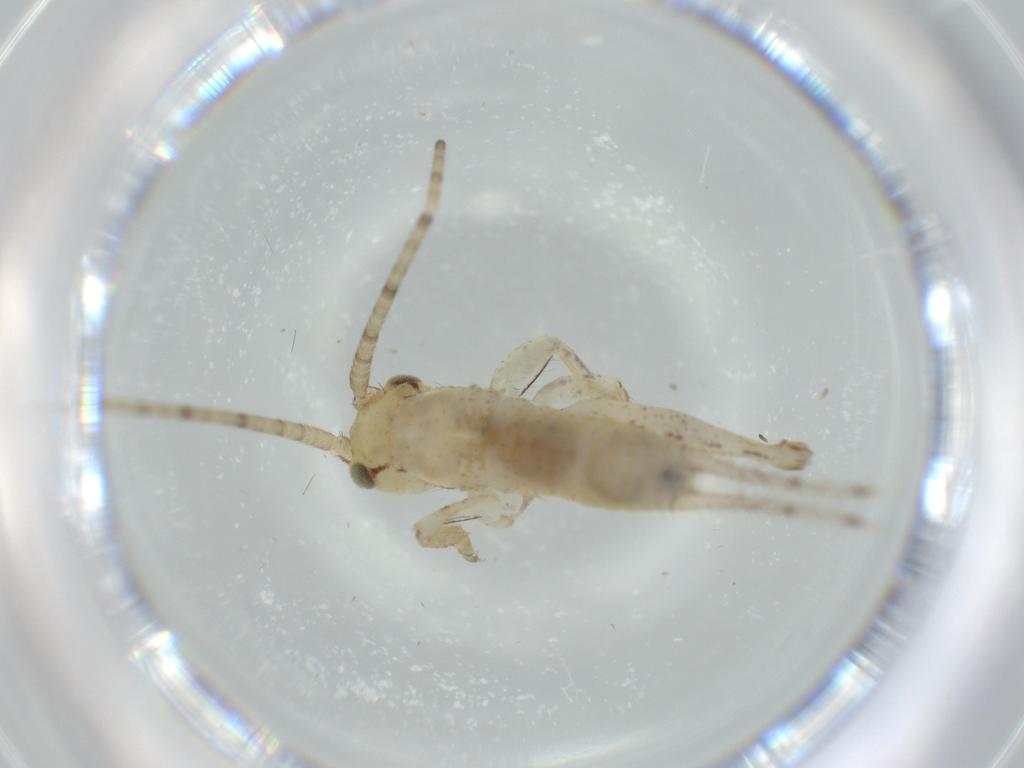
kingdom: Animalia
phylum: Arthropoda
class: Insecta
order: Orthoptera
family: Gryllidae
